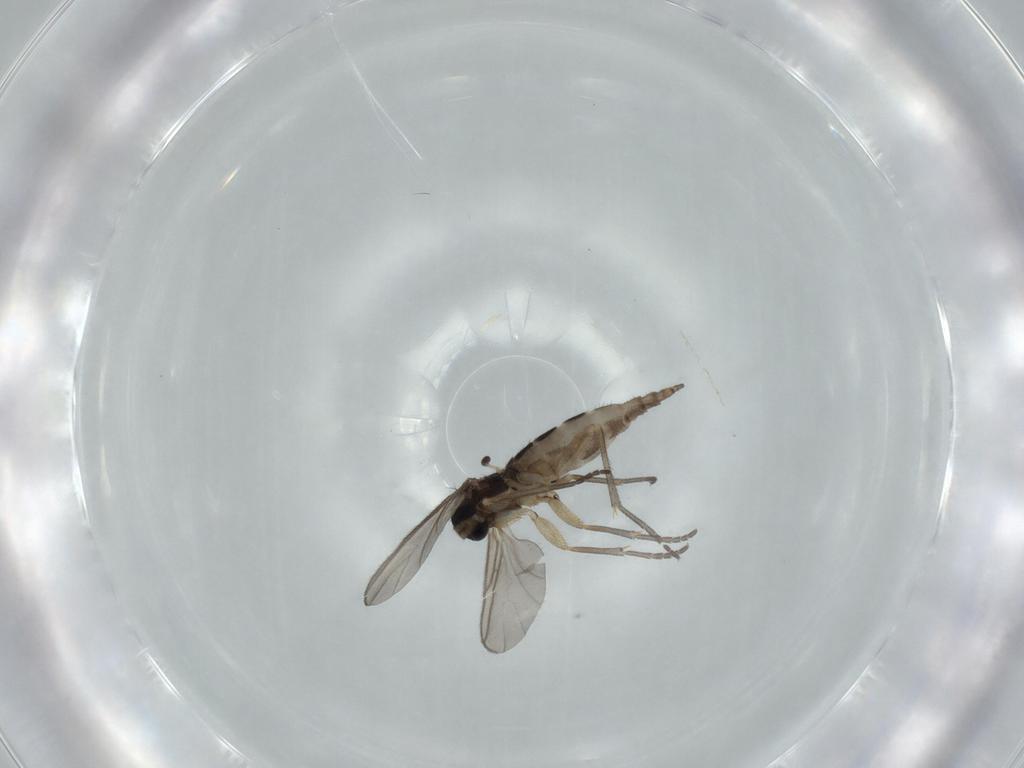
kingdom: Animalia
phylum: Arthropoda
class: Insecta
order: Diptera
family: Sciaridae
